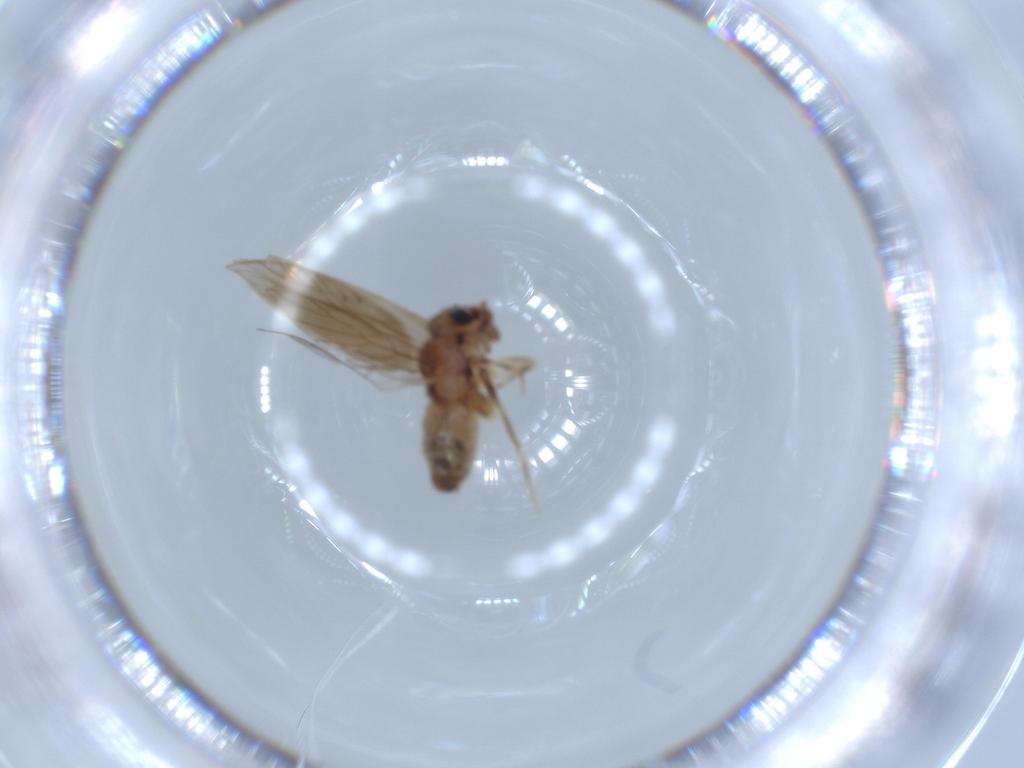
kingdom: Animalia
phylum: Arthropoda
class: Insecta
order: Psocodea
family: Lepidopsocidae
